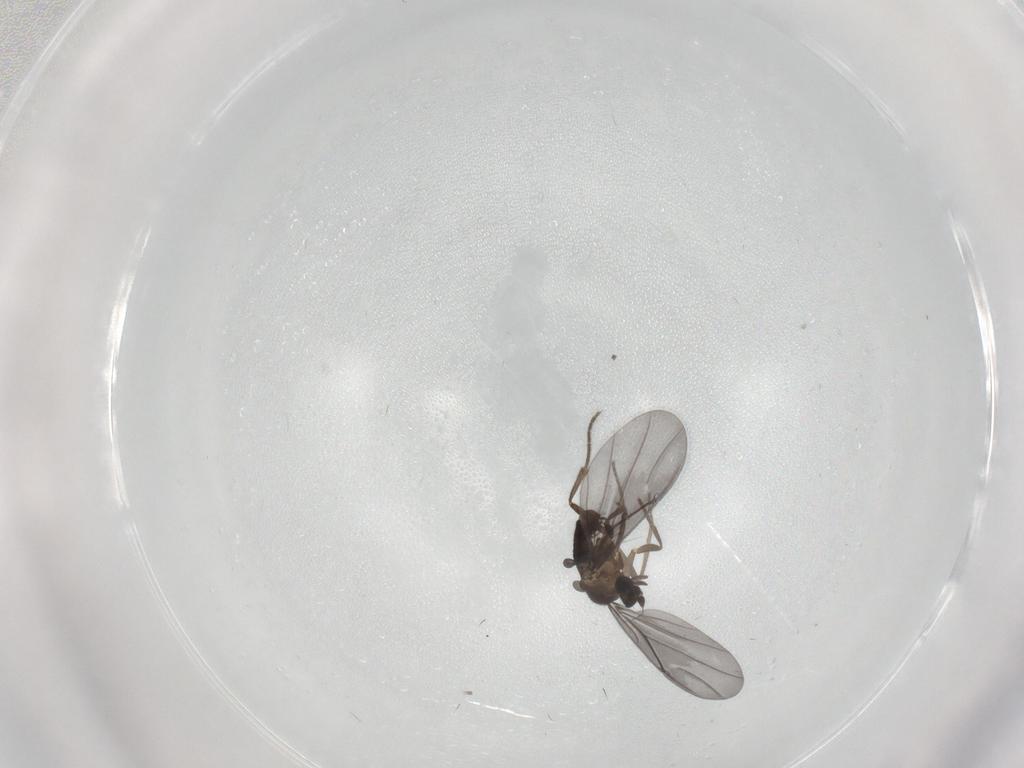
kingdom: Animalia
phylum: Arthropoda
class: Insecta
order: Diptera
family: Phoridae
